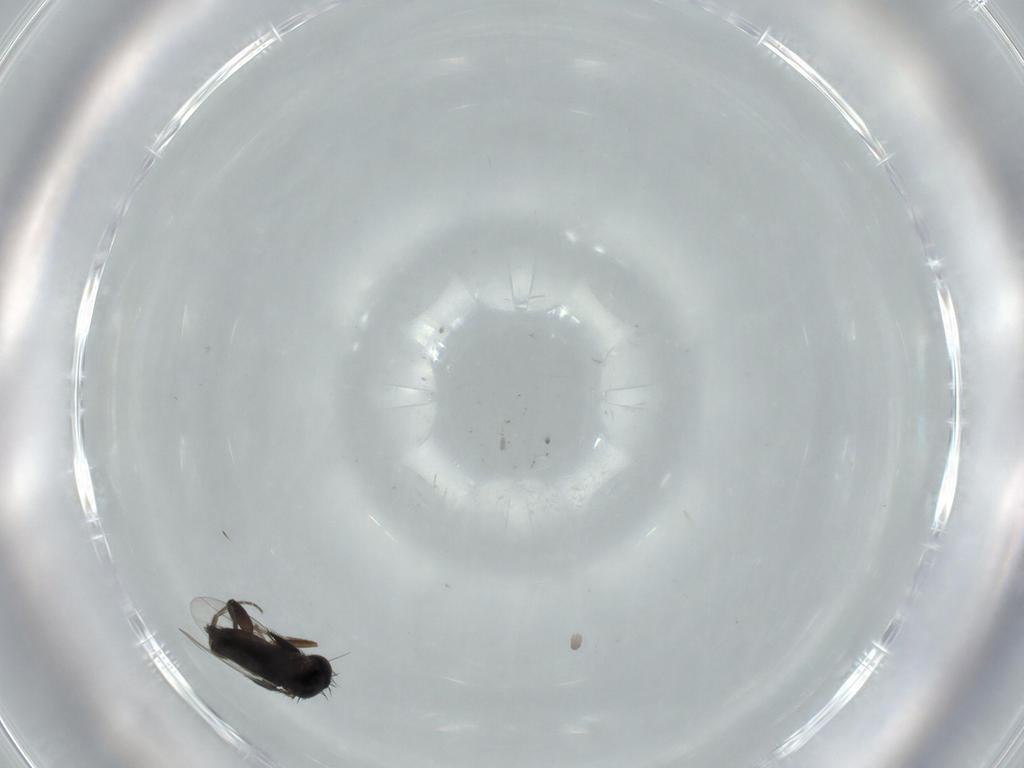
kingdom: Animalia
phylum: Arthropoda
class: Insecta
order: Diptera
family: Phoridae
